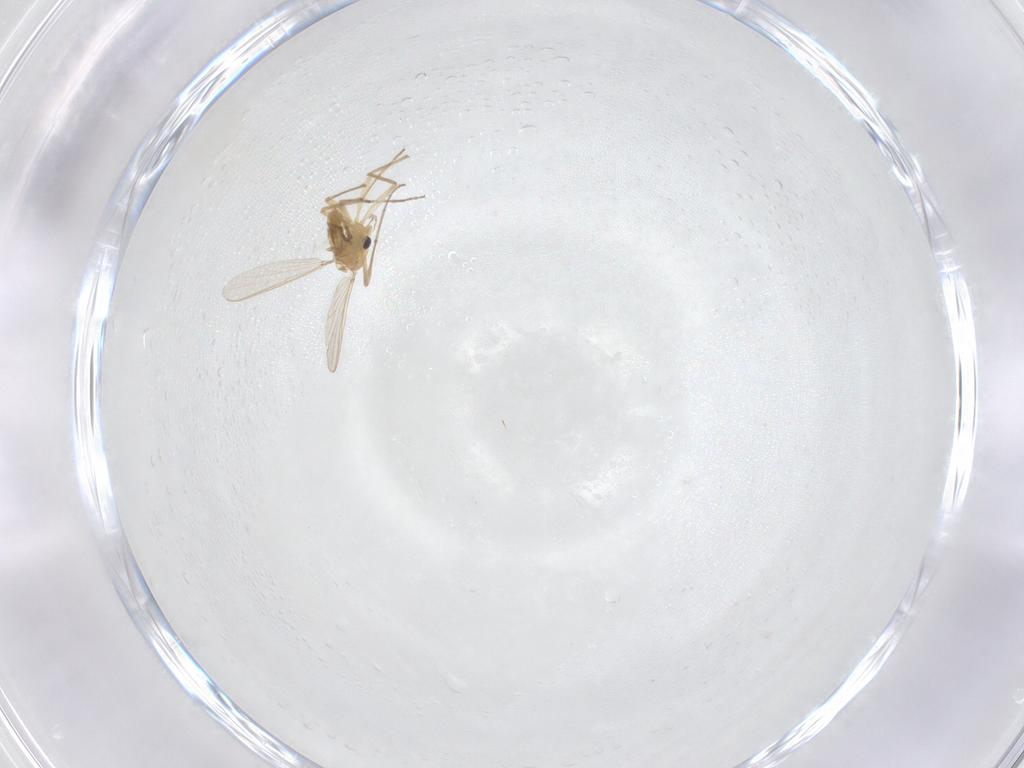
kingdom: Animalia
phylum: Arthropoda
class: Insecta
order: Diptera
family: Chironomidae
